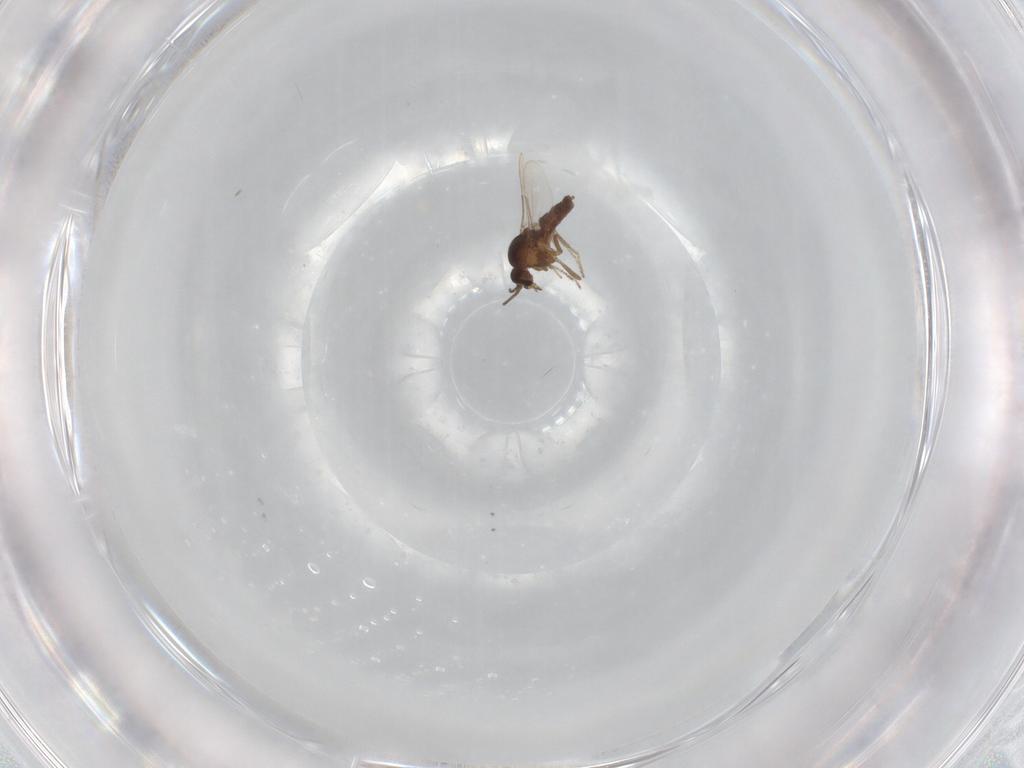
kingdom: Animalia
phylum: Arthropoda
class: Insecta
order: Diptera
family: Ceratopogonidae
